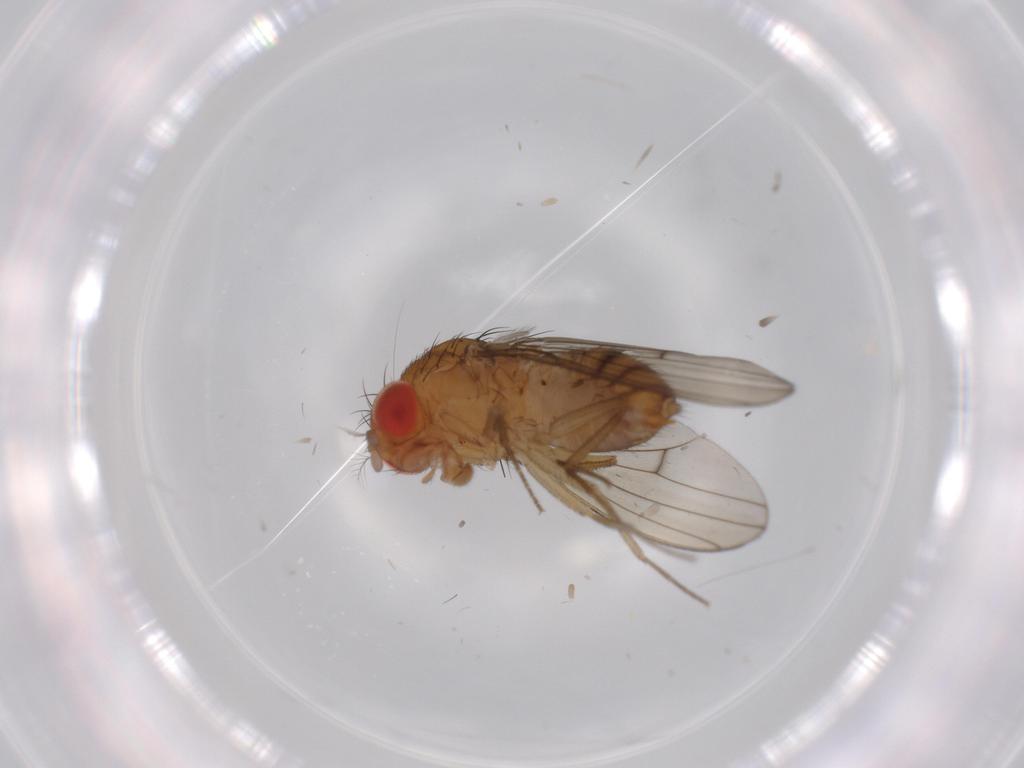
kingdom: Animalia
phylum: Arthropoda
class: Insecta
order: Diptera
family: Drosophilidae
